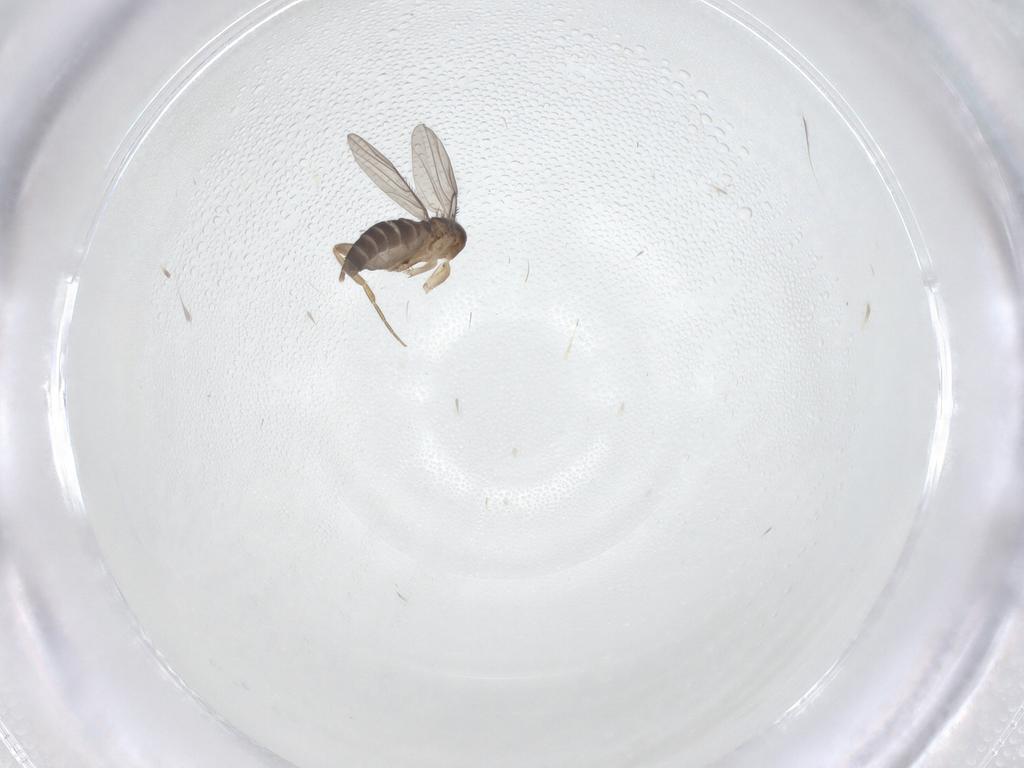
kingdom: Animalia
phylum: Arthropoda
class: Insecta
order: Diptera
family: Phoridae
